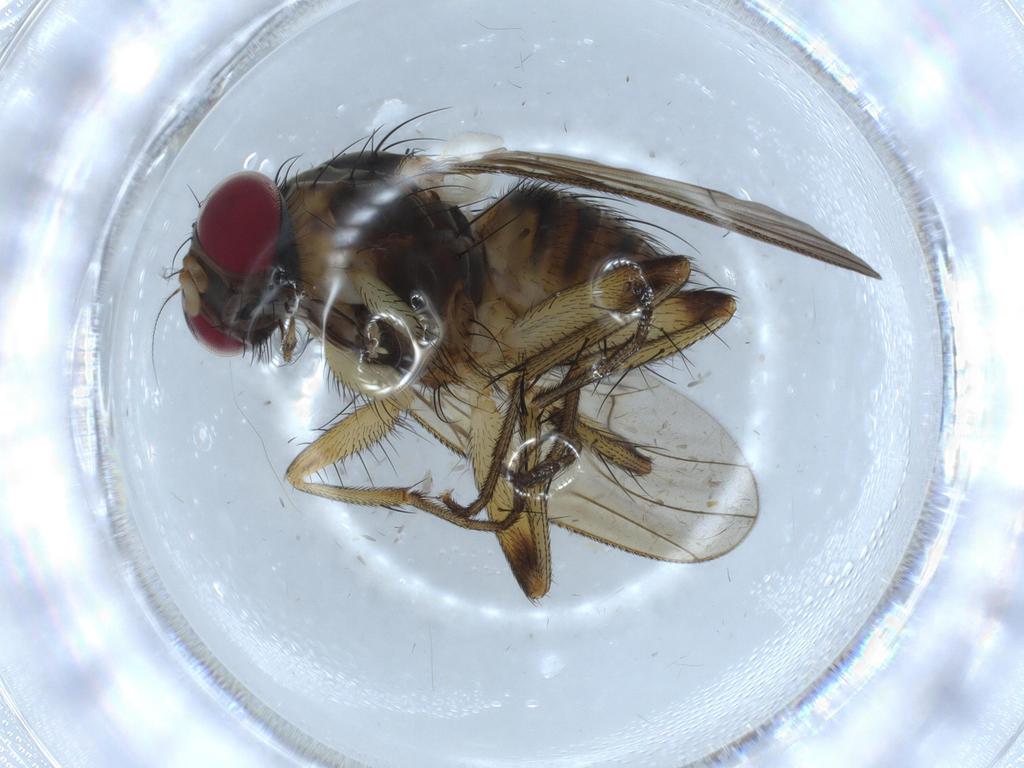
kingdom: Animalia
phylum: Arthropoda
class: Insecta
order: Diptera
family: Muscidae
